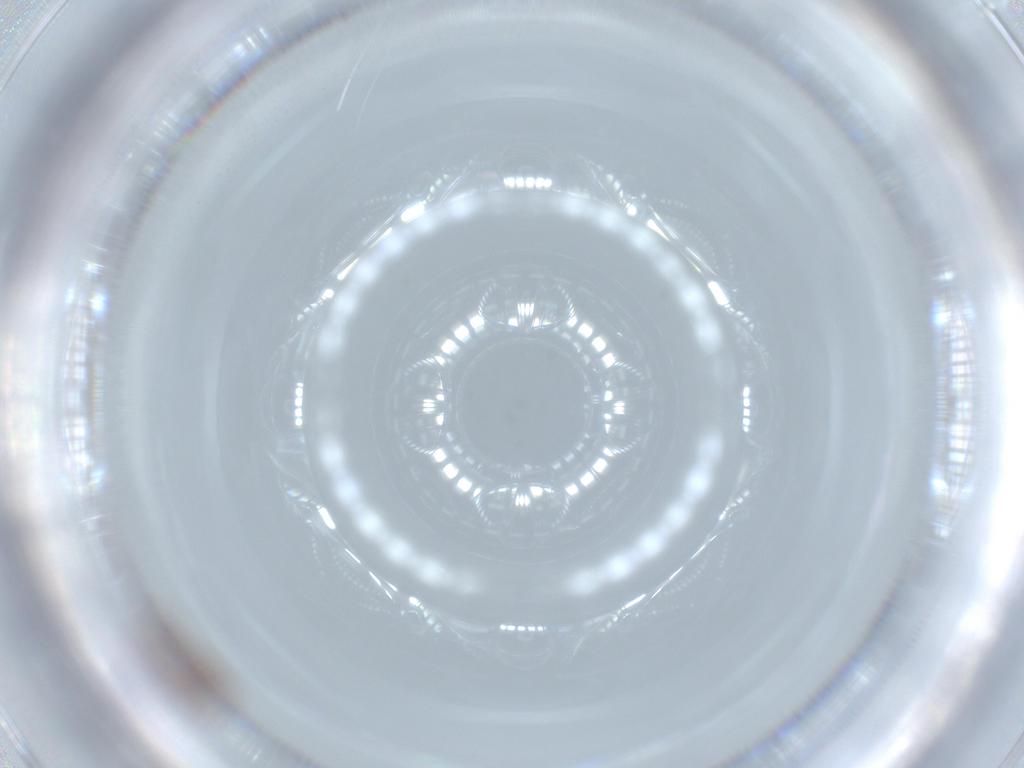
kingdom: Animalia
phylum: Arthropoda
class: Insecta
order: Coleoptera
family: Staphylinidae
